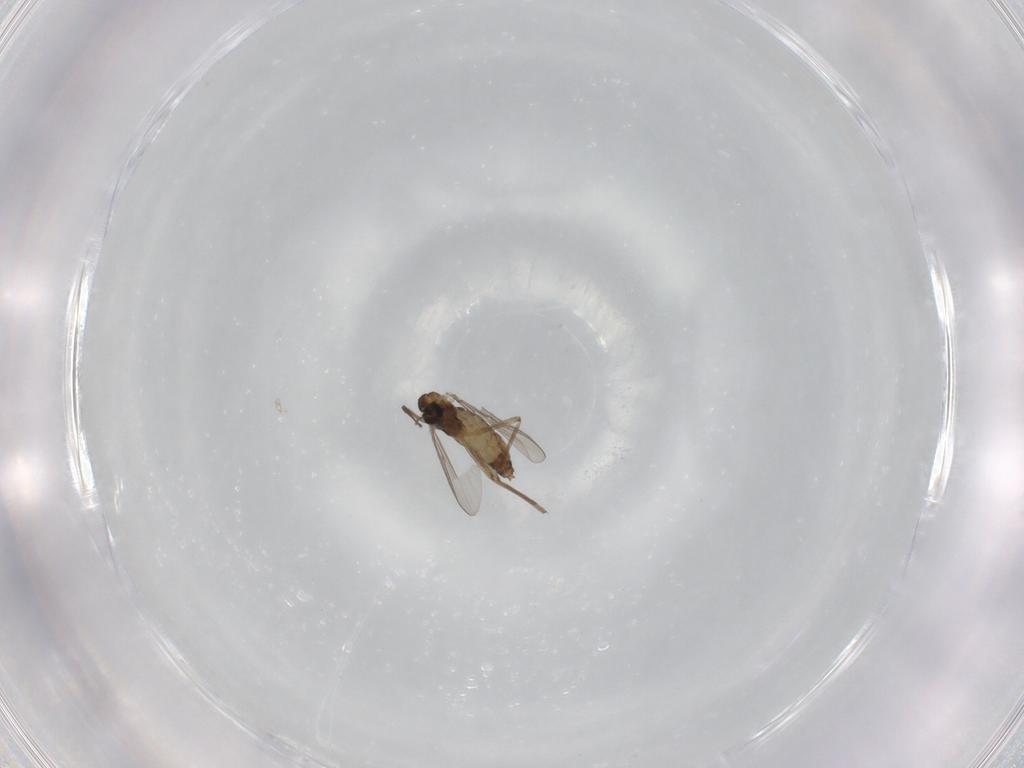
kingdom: Animalia
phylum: Arthropoda
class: Insecta
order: Diptera
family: Chironomidae
